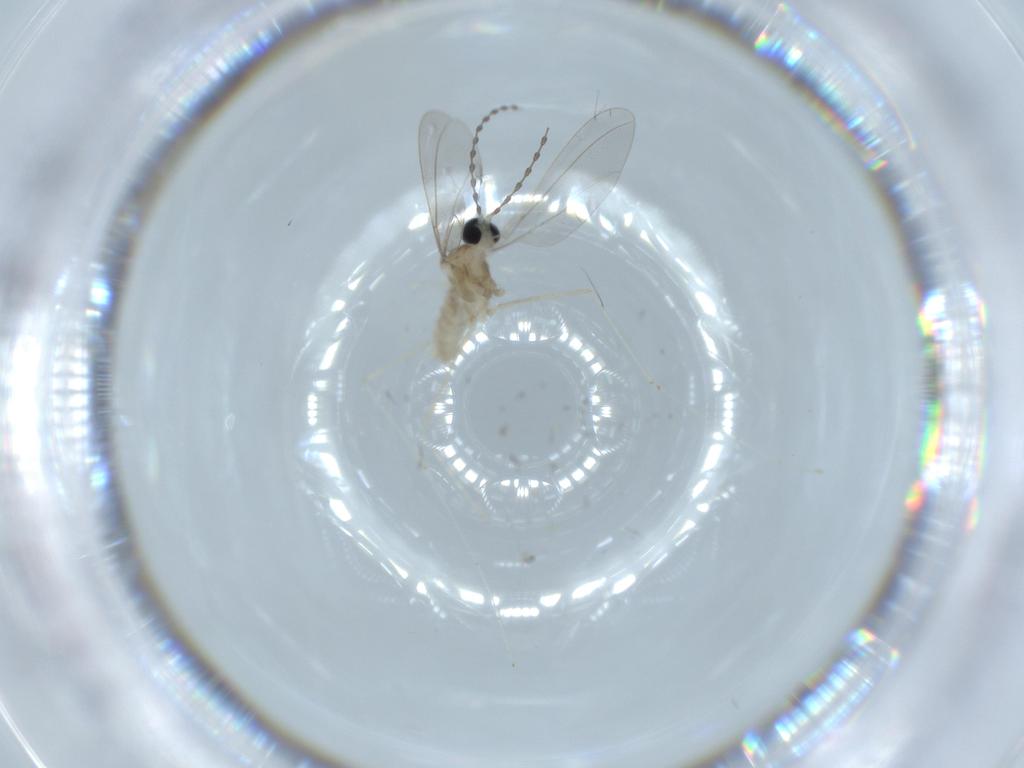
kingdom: Animalia
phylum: Arthropoda
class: Insecta
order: Diptera
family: Cecidomyiidae
